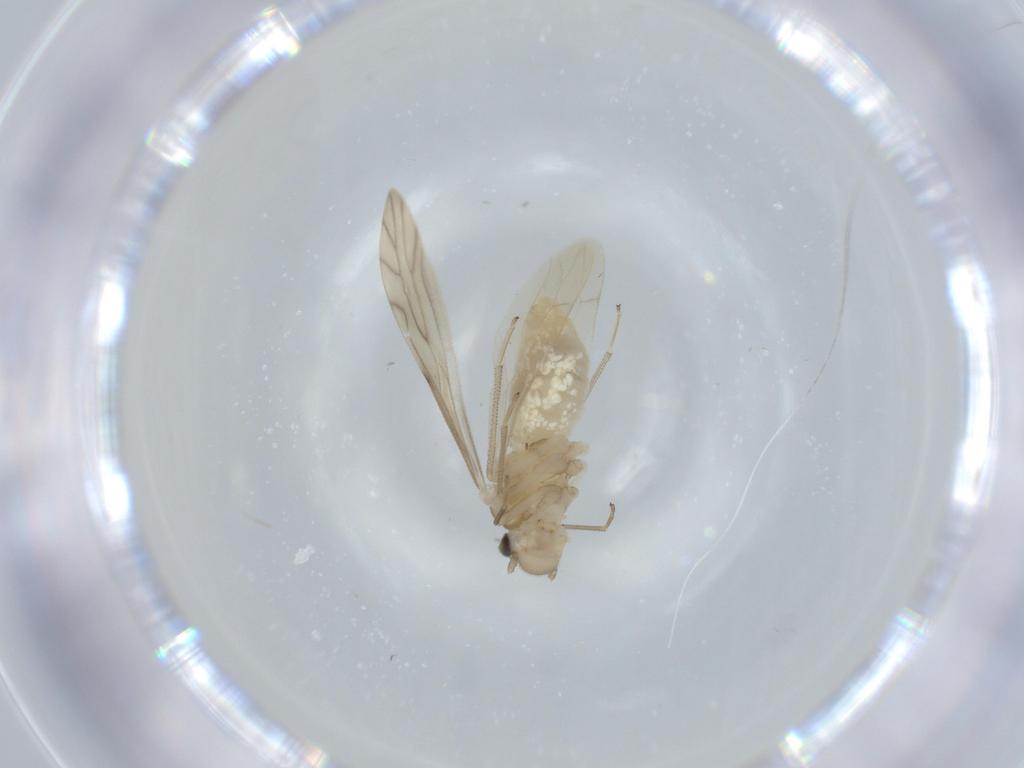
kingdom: Animalia
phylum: Arthropoda
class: Insecta
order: Psocodea
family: Caeciliusidae
